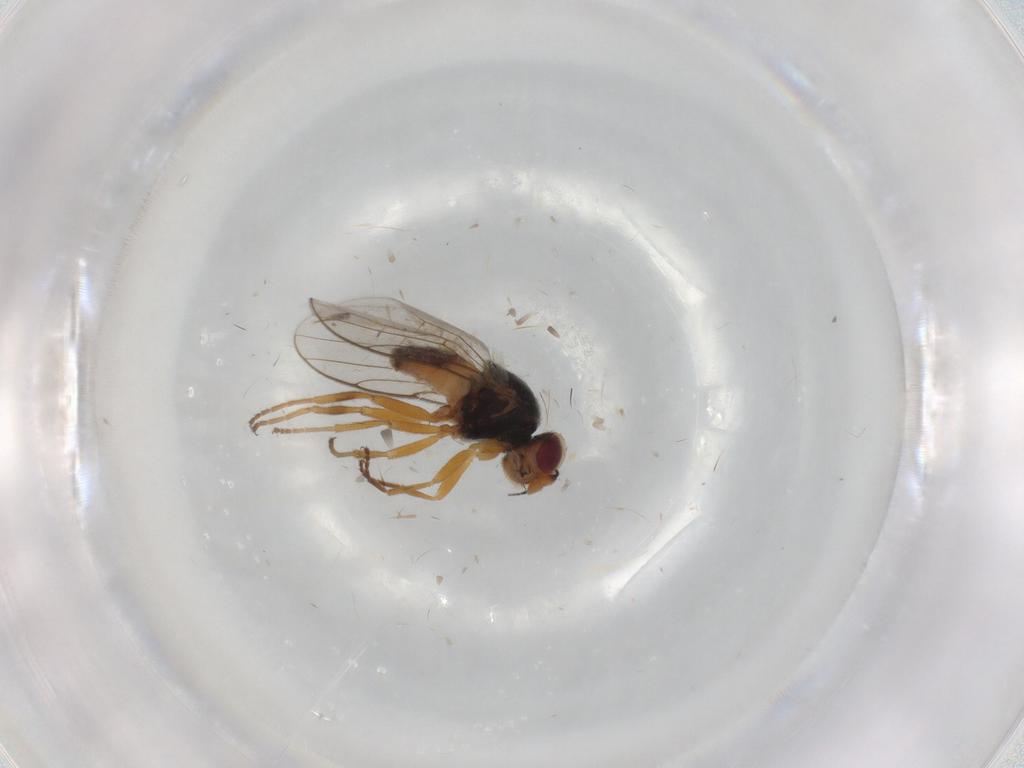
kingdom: Animalia
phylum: Arthropoda
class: Insecta
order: Diptera
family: Chloropidae
